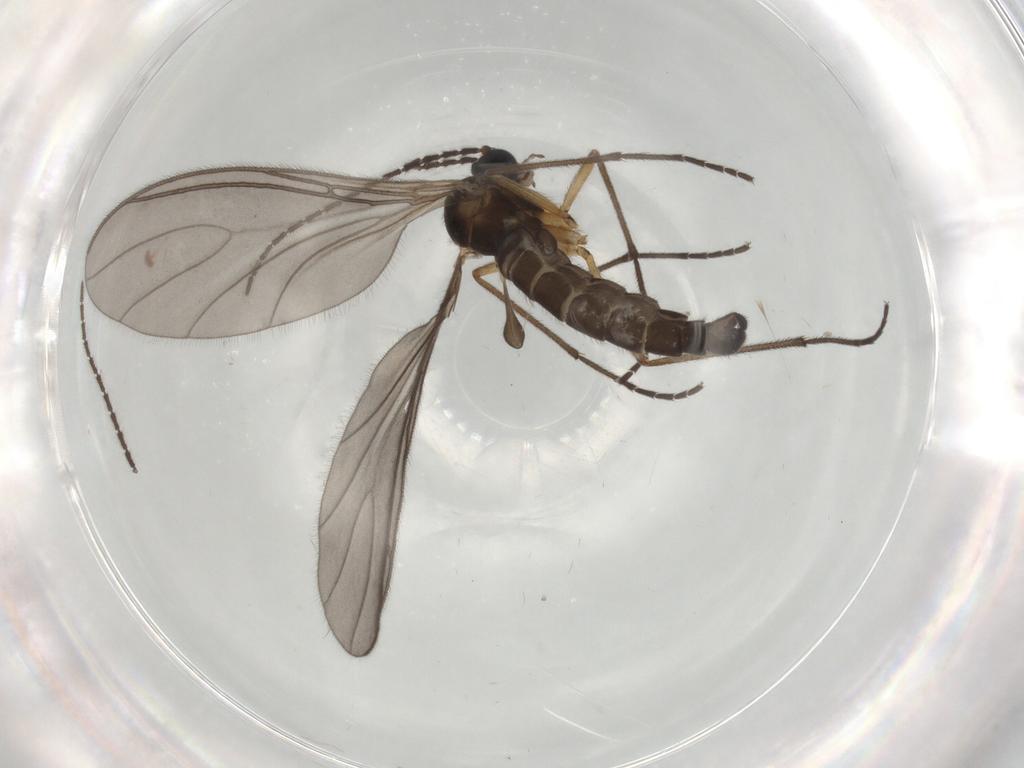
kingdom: Animalia
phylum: Arthropoda
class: Insecta
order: Diptera
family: Sciaridae
